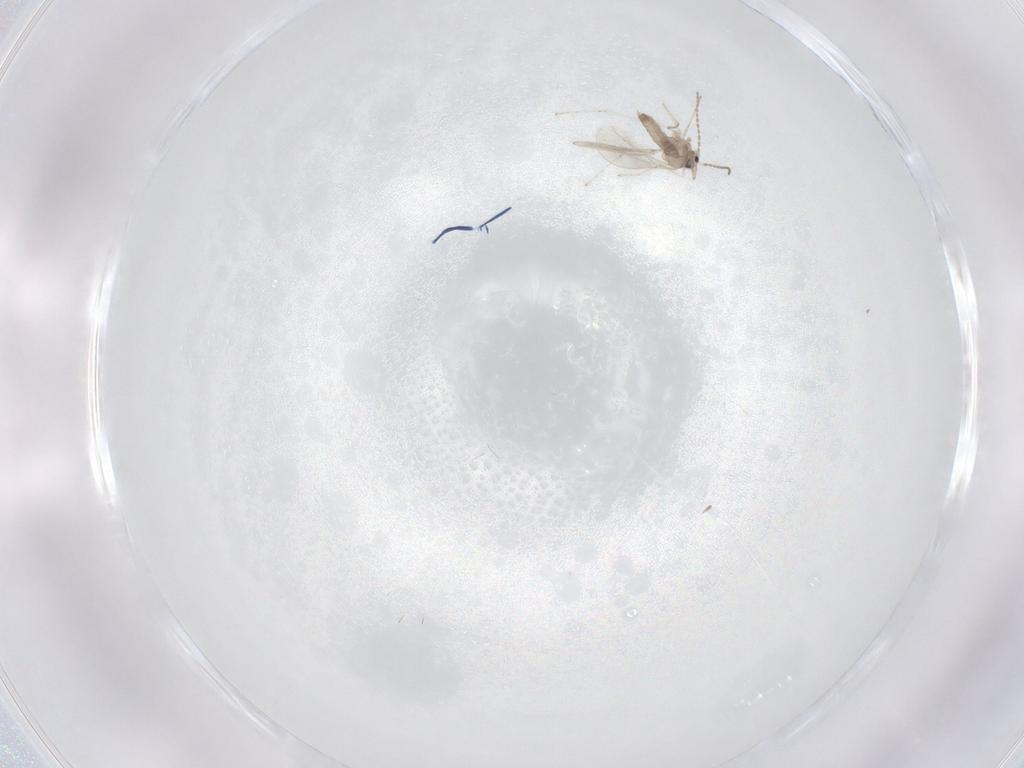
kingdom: Animalia
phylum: Arthropoda
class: Insecta
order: Diptera
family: Cecidomyiidae
